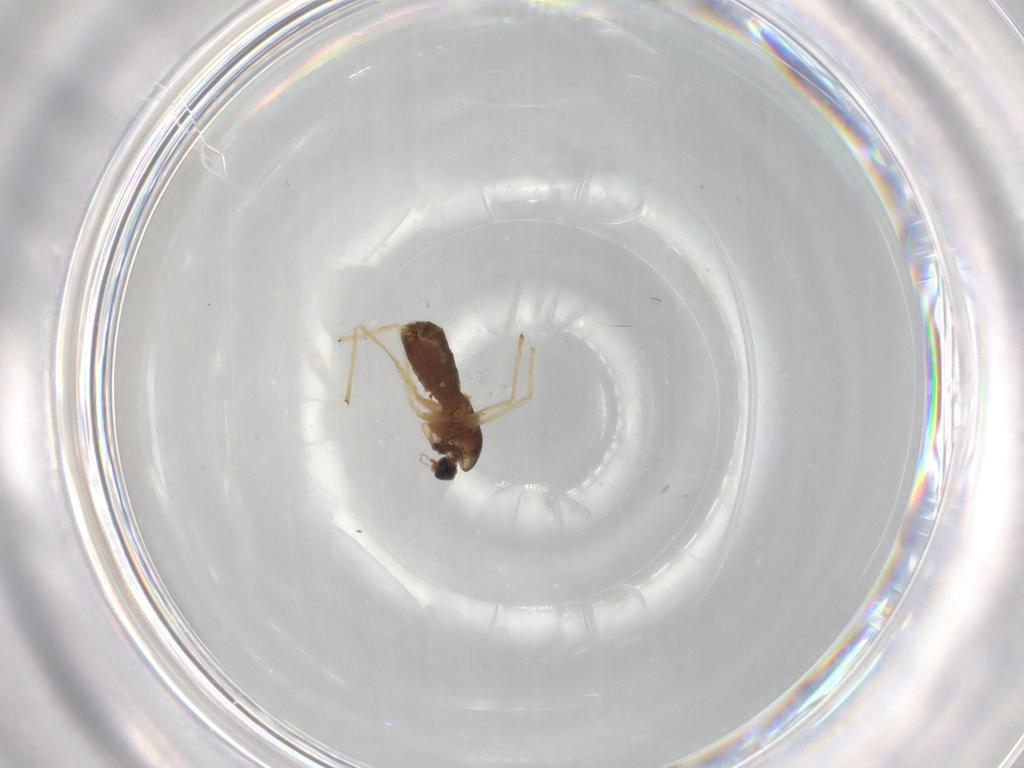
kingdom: Animalia
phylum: Arthropoda
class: Insecta
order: Diptera
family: Chironomidae
